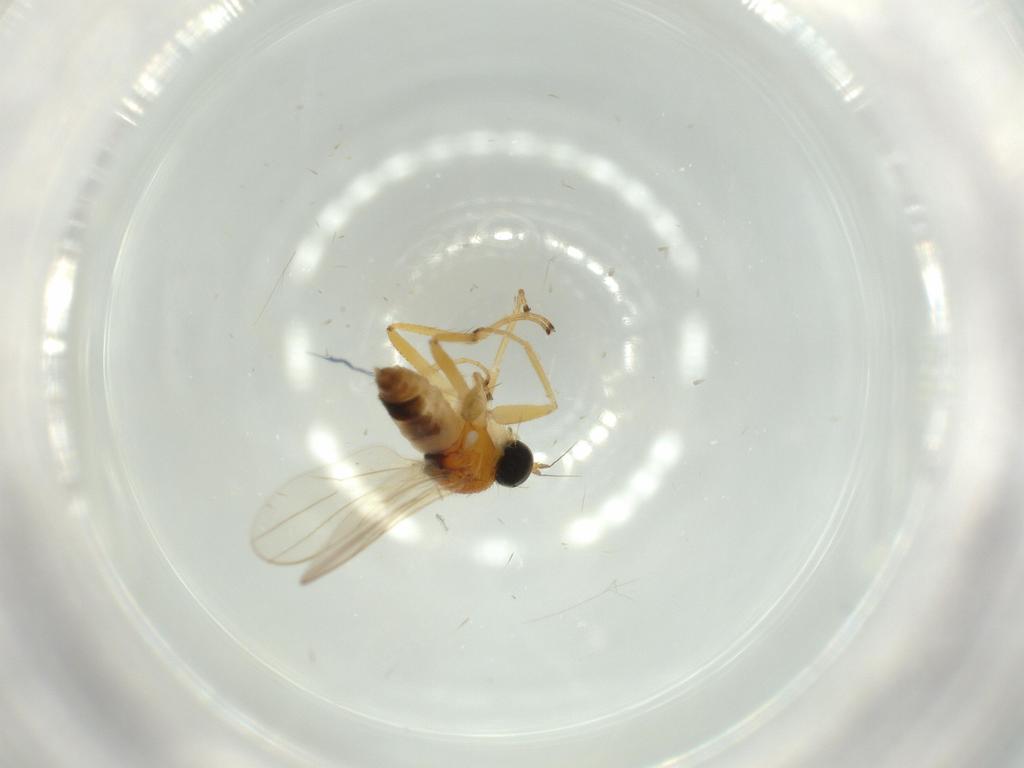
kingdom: Animalia
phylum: Arthropoda
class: Insecta
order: Diptera
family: Hybotidae
